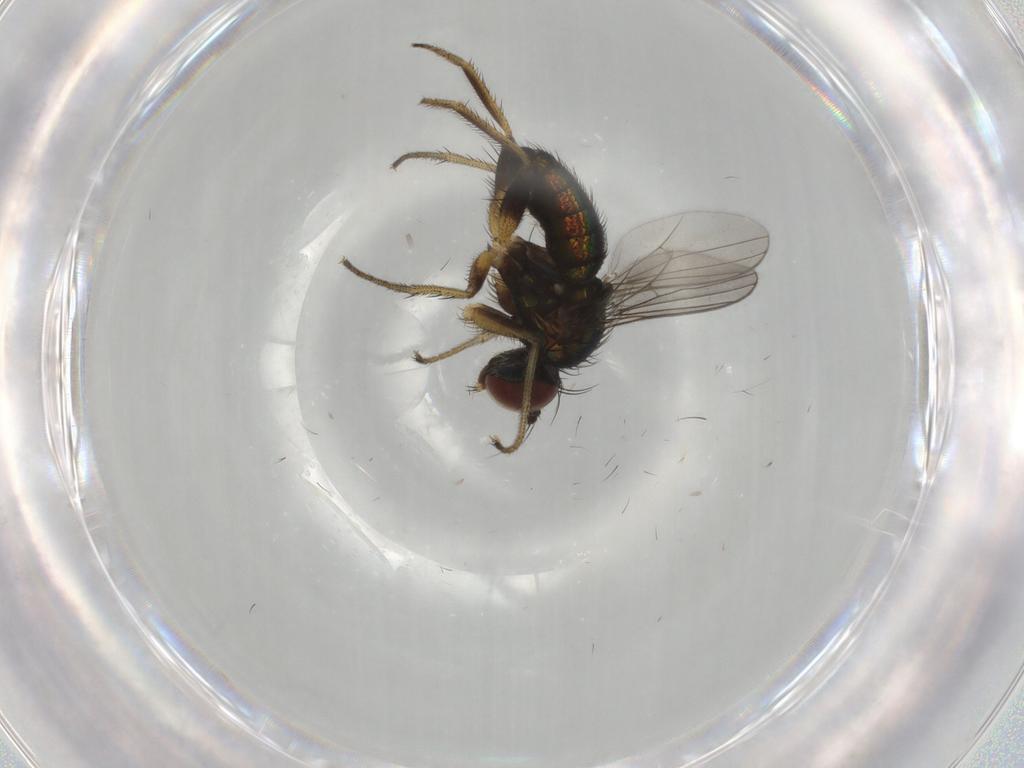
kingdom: Animalia
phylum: Arthropoda
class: Insecta
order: Diptera
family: Dolichopodidae
